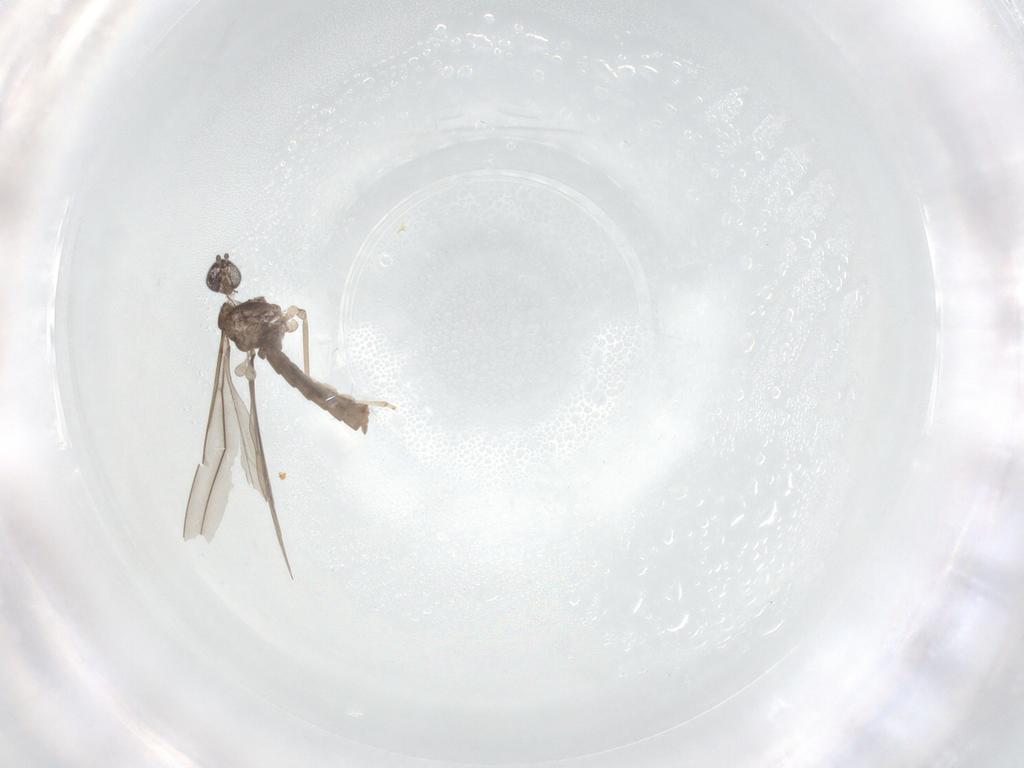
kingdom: Animalia
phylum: Arthropoda
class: Insecta
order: Diptera
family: Cecidomyiidae
